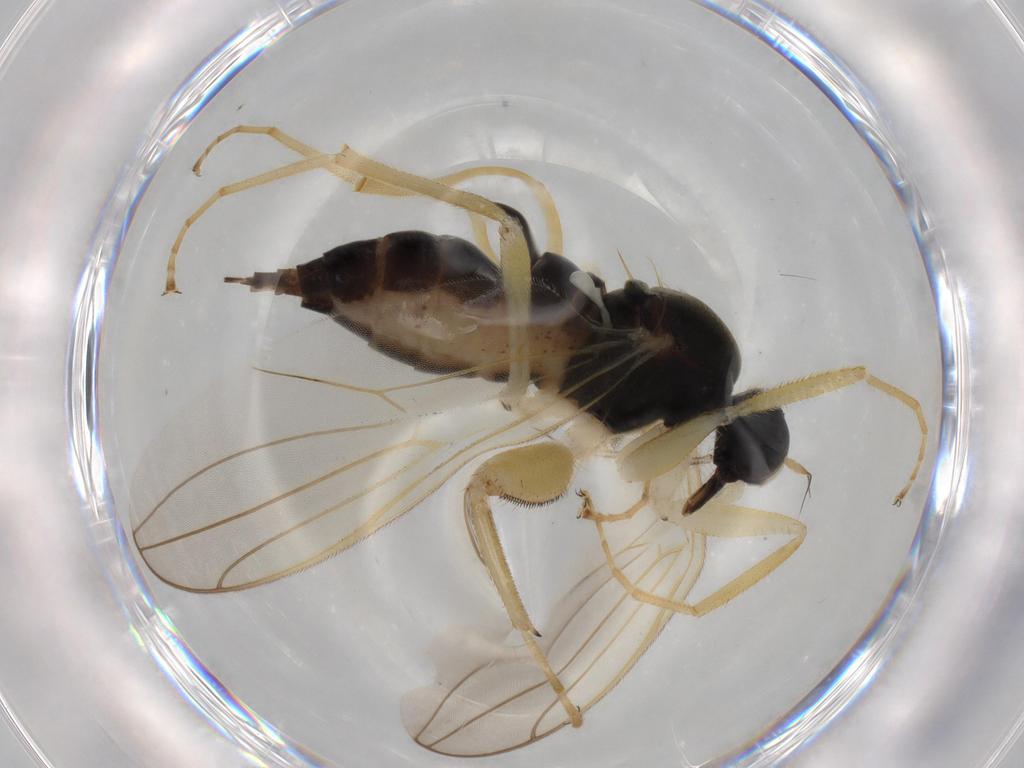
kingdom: Animalia
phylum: Arthropoda
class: Insecta
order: Diptera
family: Hybotidae
